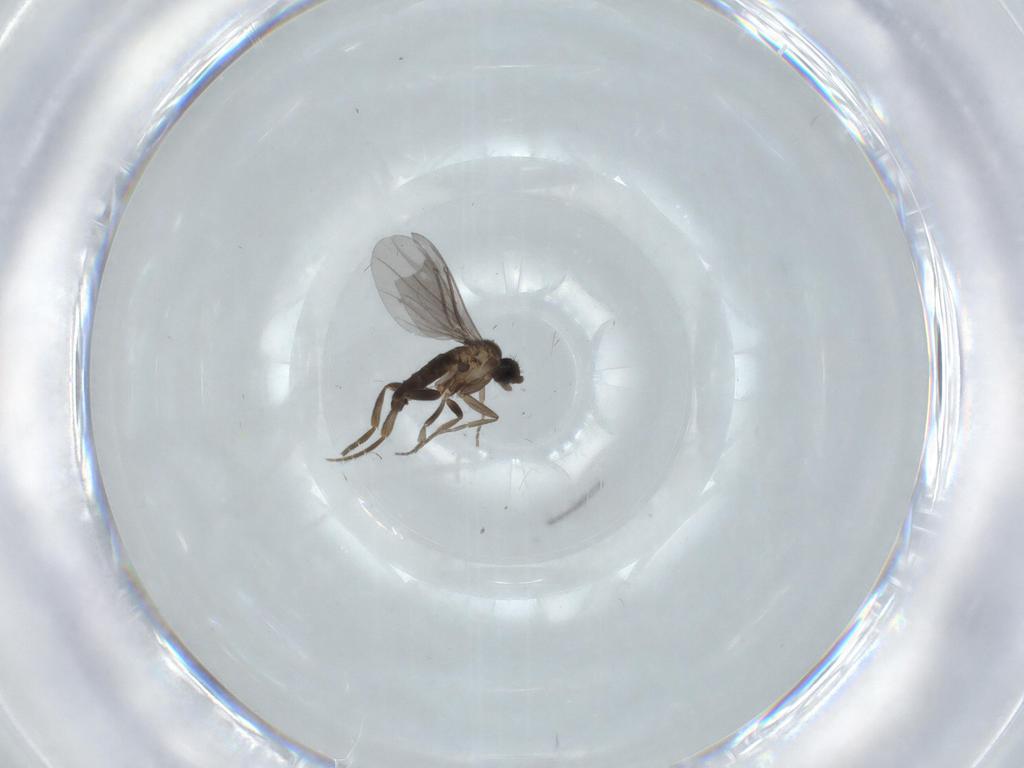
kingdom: Animalia
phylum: Arthropoda
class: Insecta
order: Diptera
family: Phoridae
